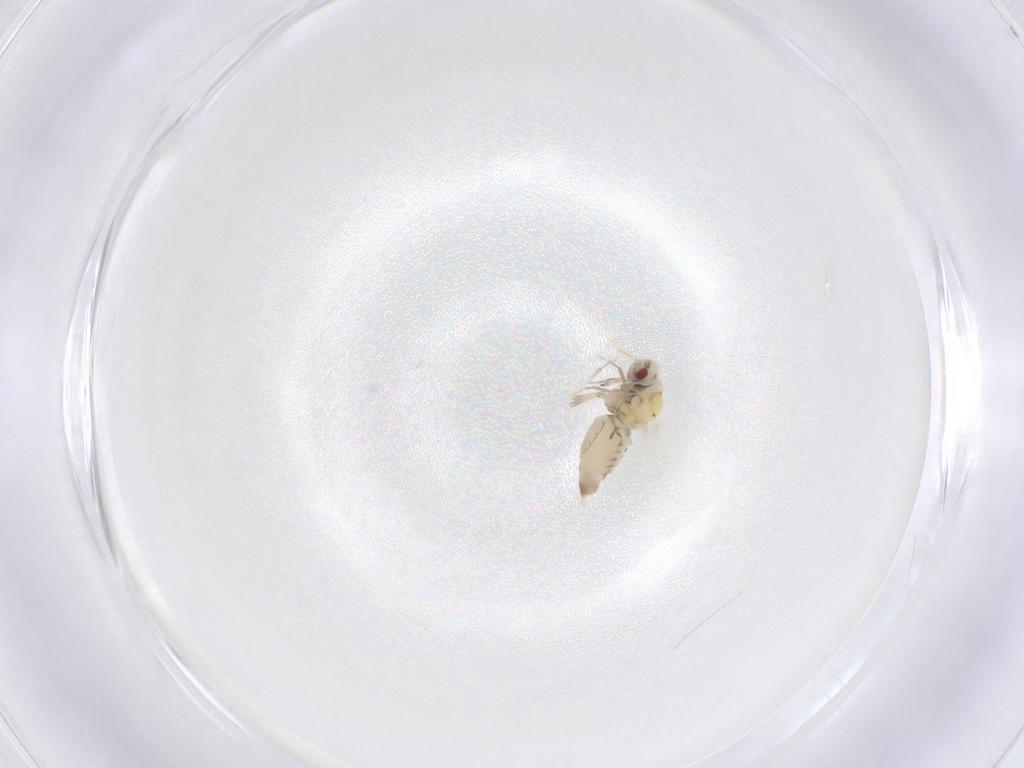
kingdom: Animalia
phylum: Arthropoda
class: Insecta
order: Hemiptera
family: Aleyrodidae
